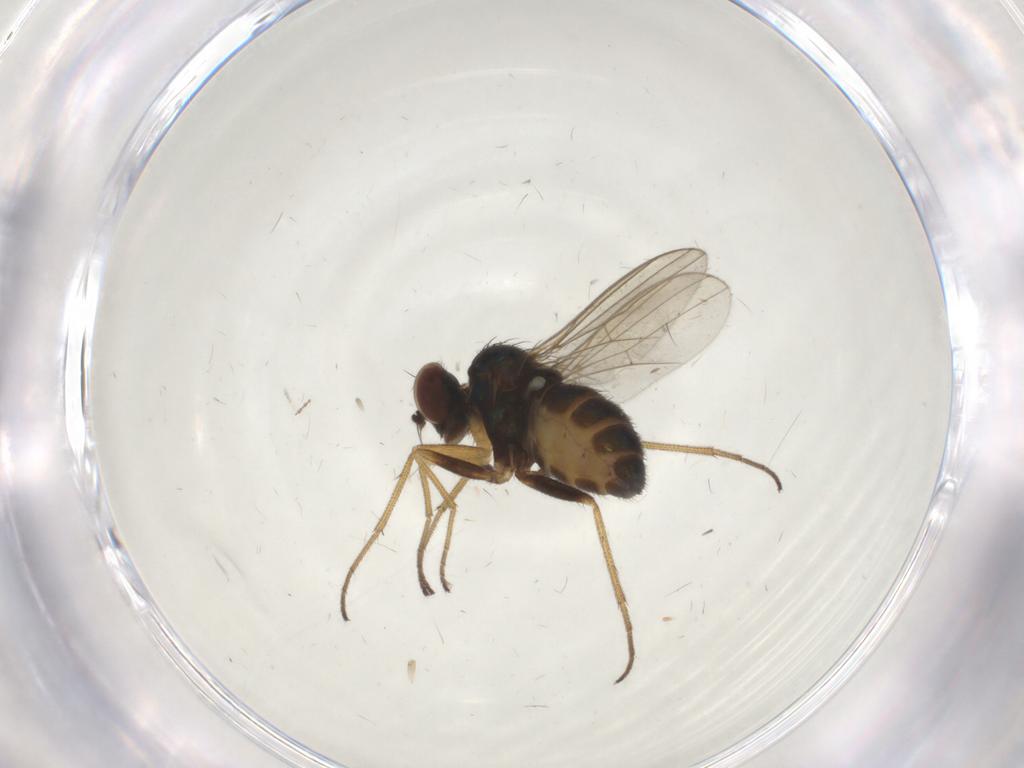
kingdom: Animalia
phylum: Arthropoda
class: Insecta
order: Diptera
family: Dolichopodidae
